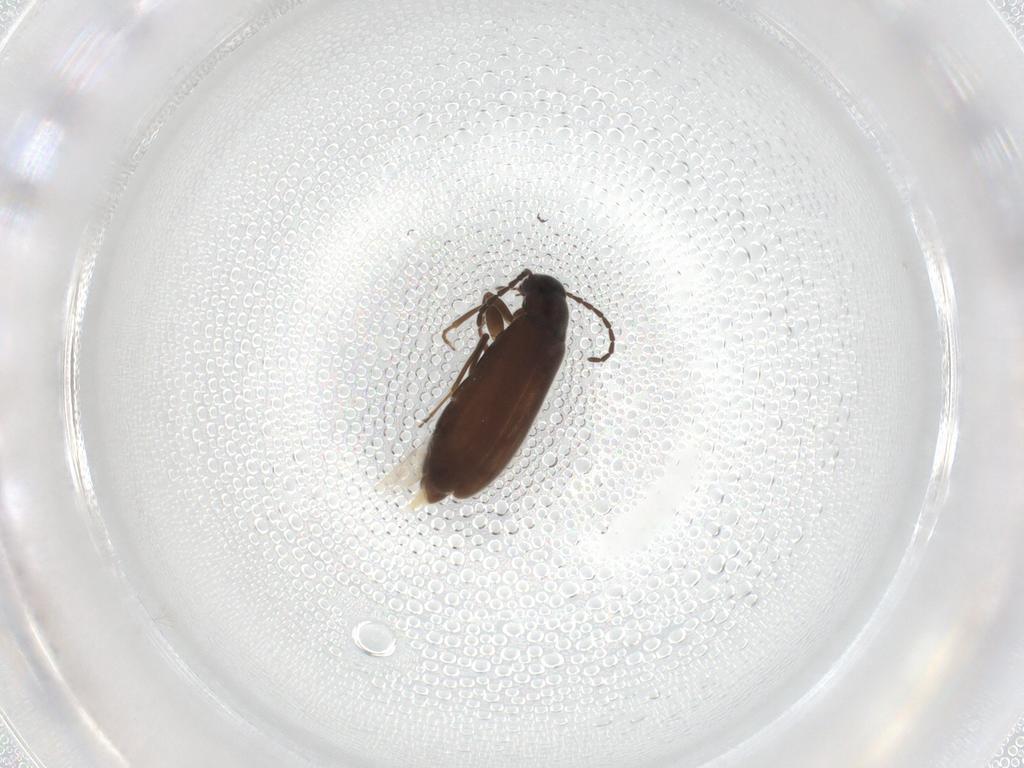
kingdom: Animalia
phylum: Arthropoda
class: Insecta
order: Coleoptera
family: Scraptiidae
